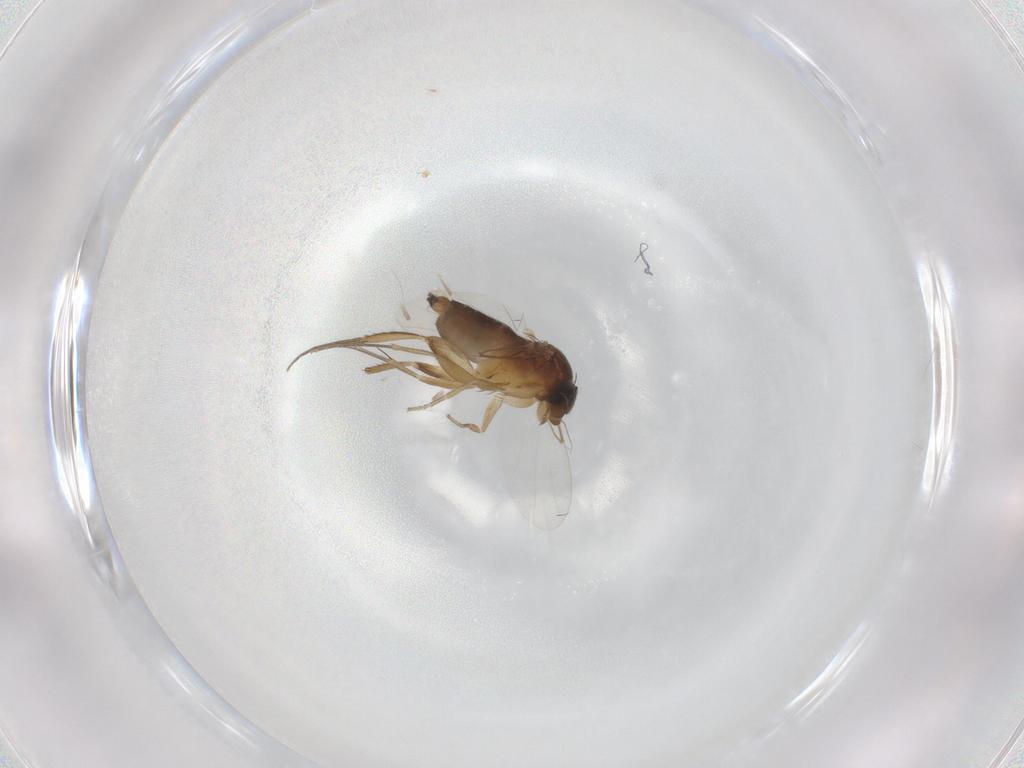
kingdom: Animalia
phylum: Arthropoda
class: Insecta
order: Diptera
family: Phoridae
